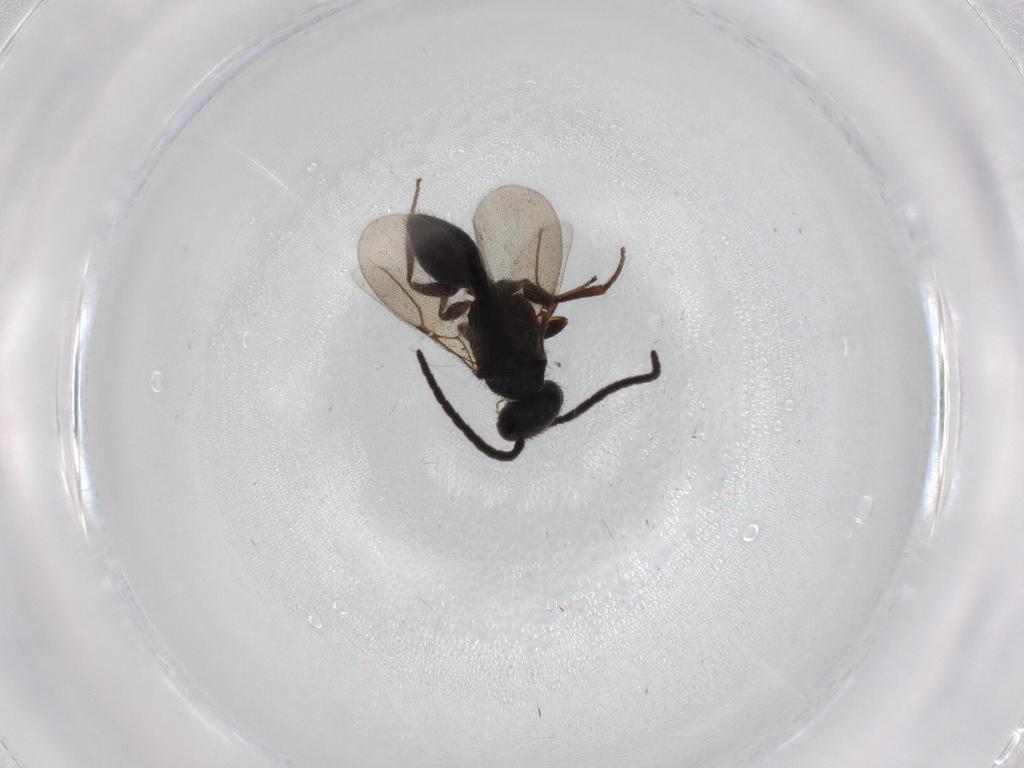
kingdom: Animalia
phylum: Arthropoda
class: Insecta
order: Hymenoptera
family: Bethylidae
